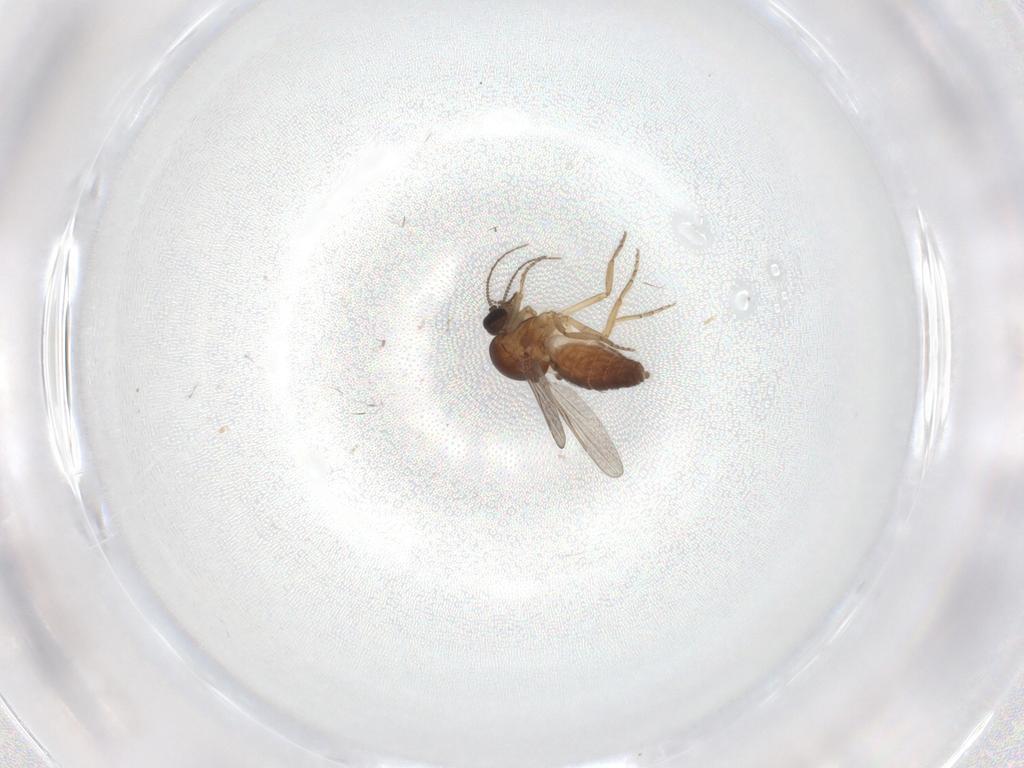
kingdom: Animalia
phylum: Arthropoda
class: Insecta
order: Diptera
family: Ceratopogonidae
